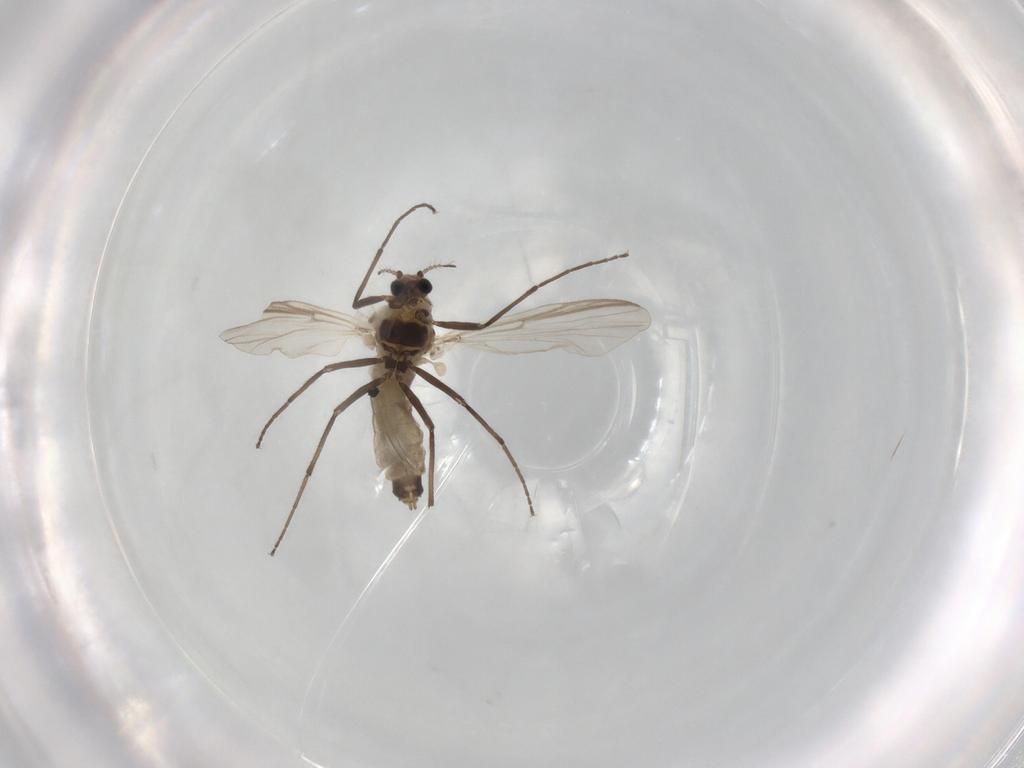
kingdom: Animalia
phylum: Arthropoda
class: Insecta
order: Diptera
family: Chironomidae
